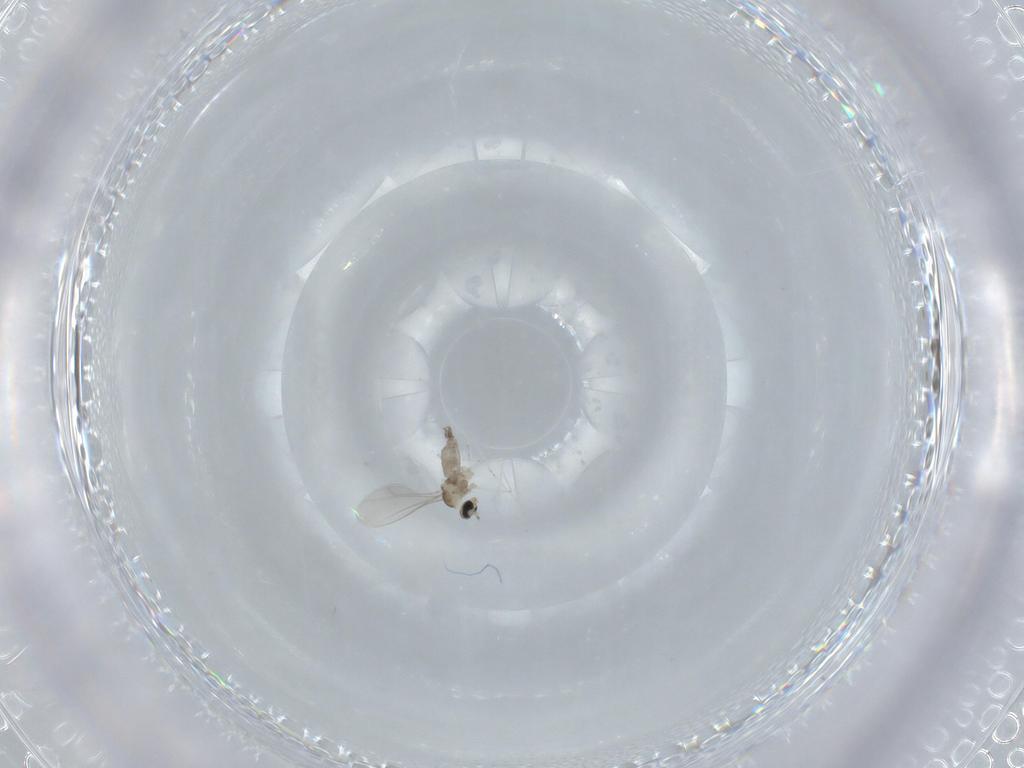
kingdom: Animalia
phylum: Arthropoda
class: Insecta
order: Diptera
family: Cecidomyiidae
